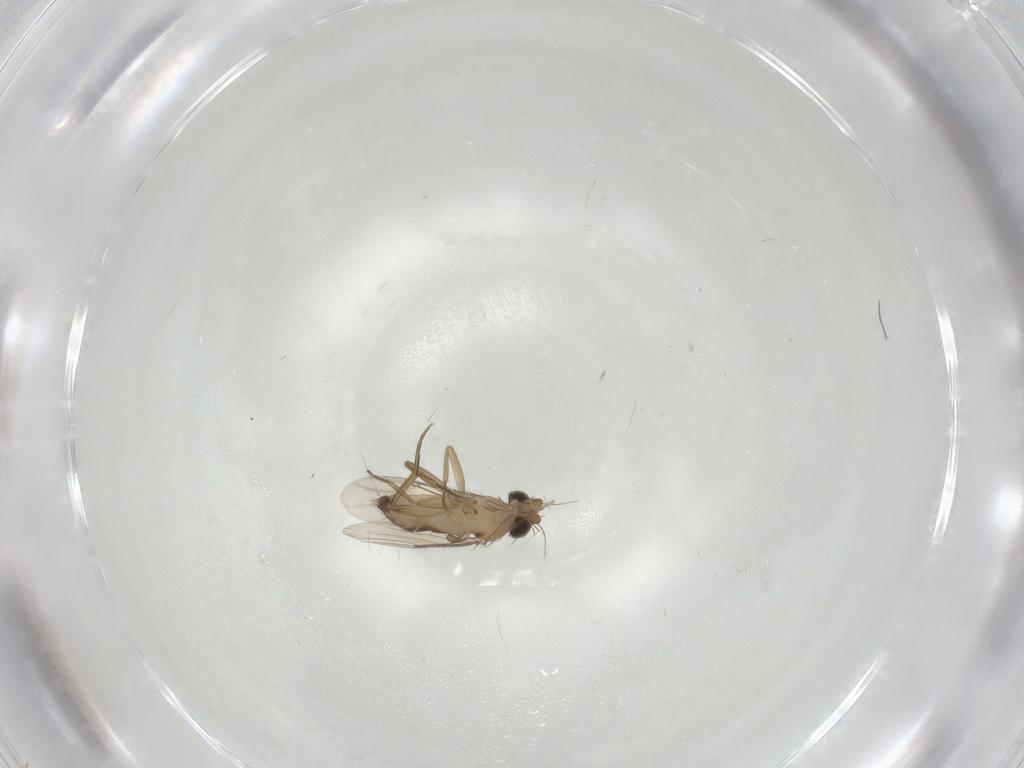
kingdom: Animalia
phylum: Arthropoda
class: Insecta
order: Diptera
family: Phoridae
